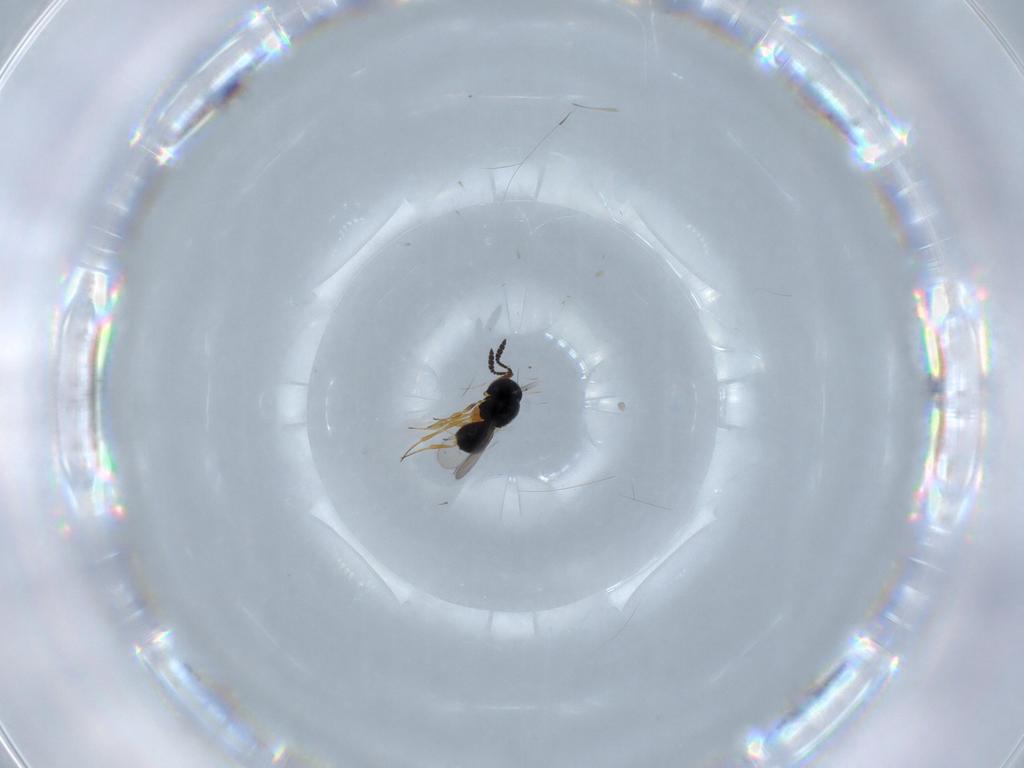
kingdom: Animalia
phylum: Arthropoda
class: Insecta
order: Hymenoptera
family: Scelionidae
